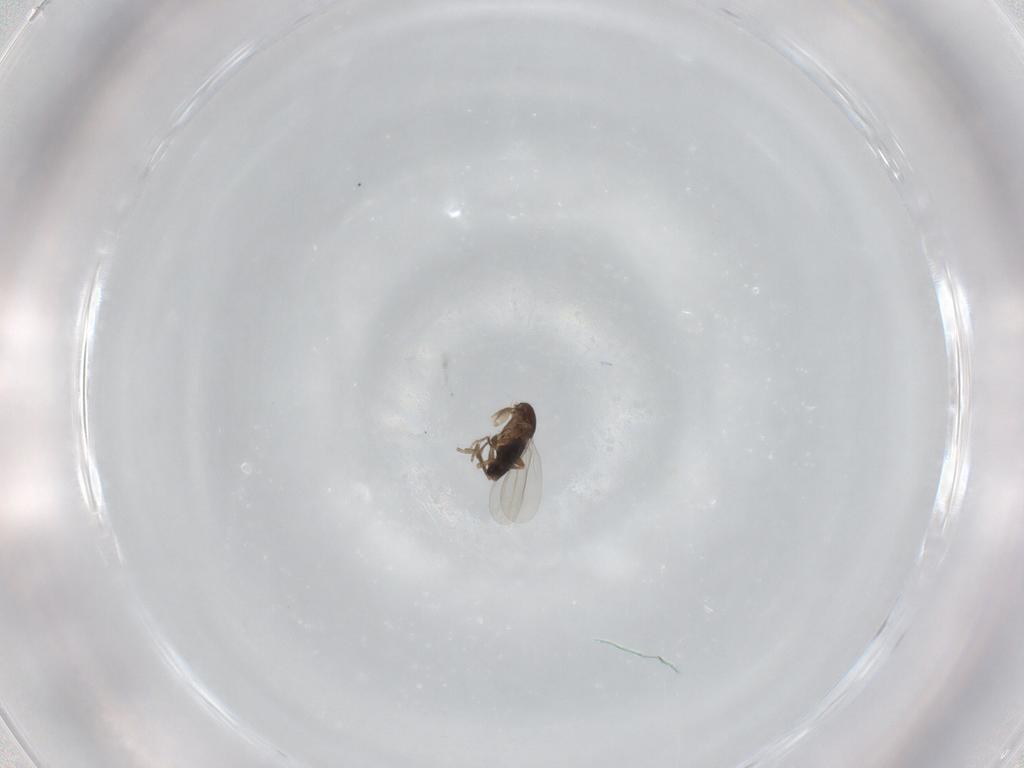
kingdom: Animalia
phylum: Arthropoda
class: Insecta
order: Diptera
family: Phoridae
